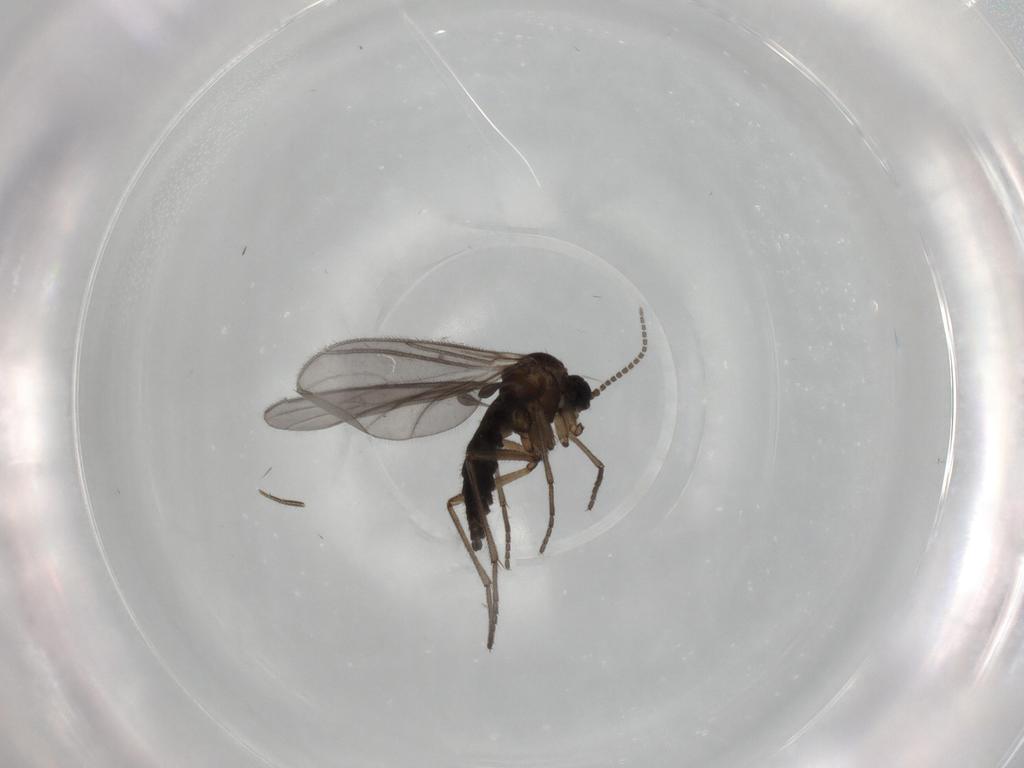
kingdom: Animalia
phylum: Arthropoda
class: Insecta
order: Diptera
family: Sciaridae
